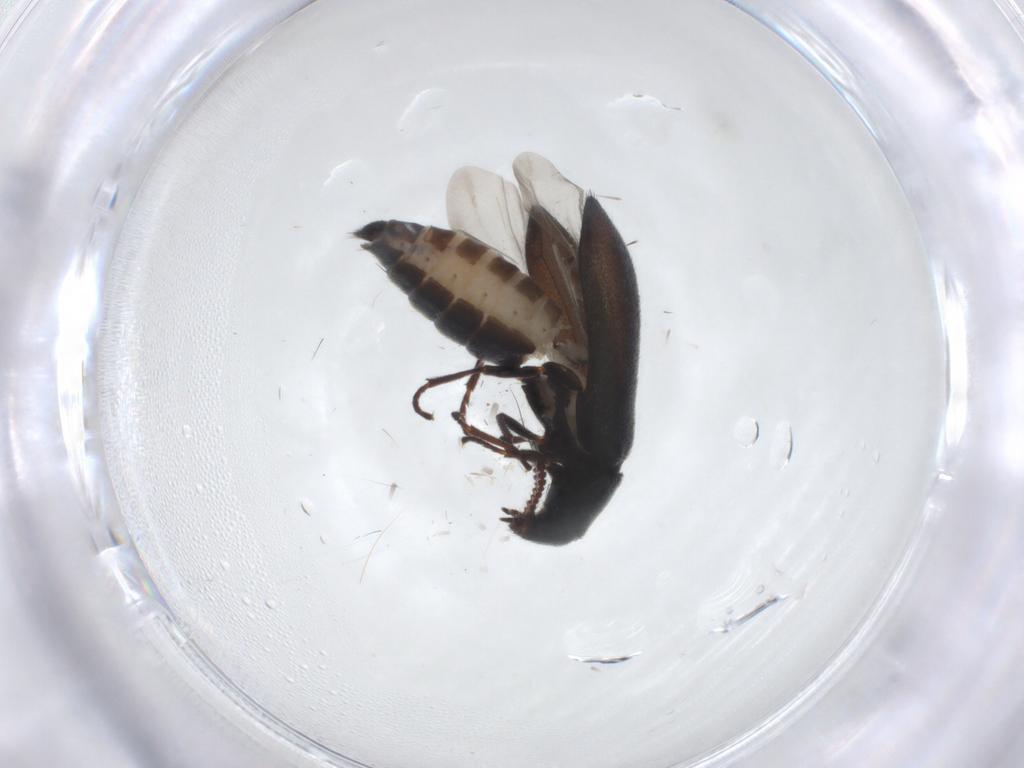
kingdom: Animalia
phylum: Arthropoda
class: Insecta
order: Coleoptera
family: Melyridae
